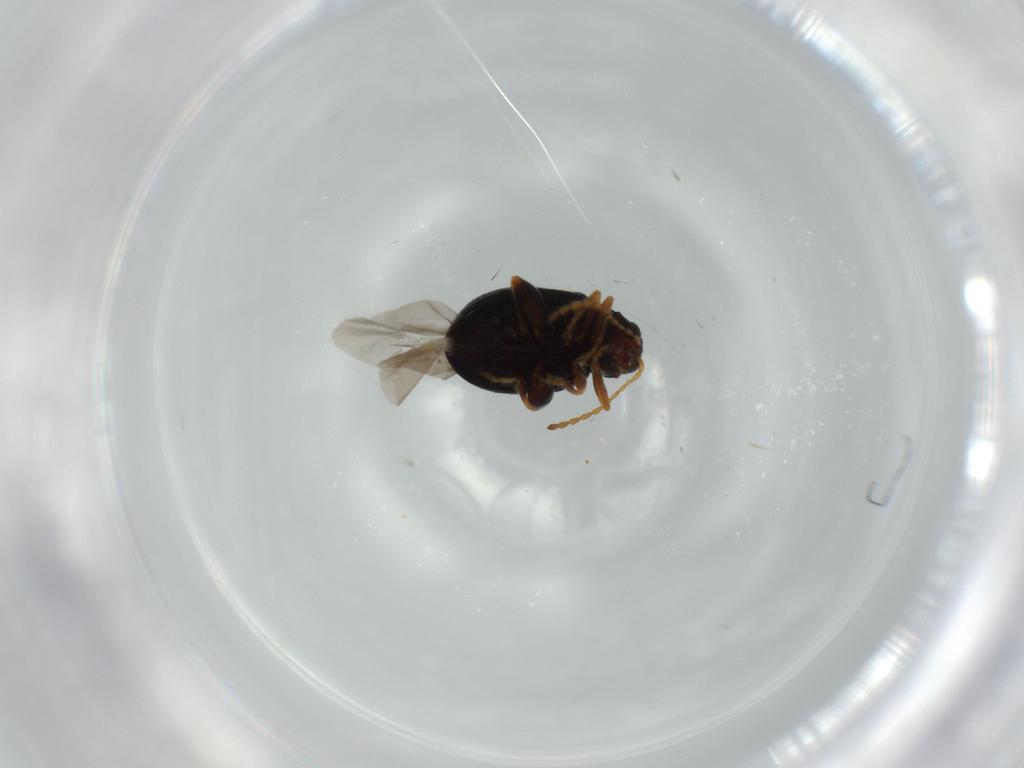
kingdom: Animalia
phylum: Arthropoda
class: Insecta
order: Coleoptera
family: Chrysomelidae
